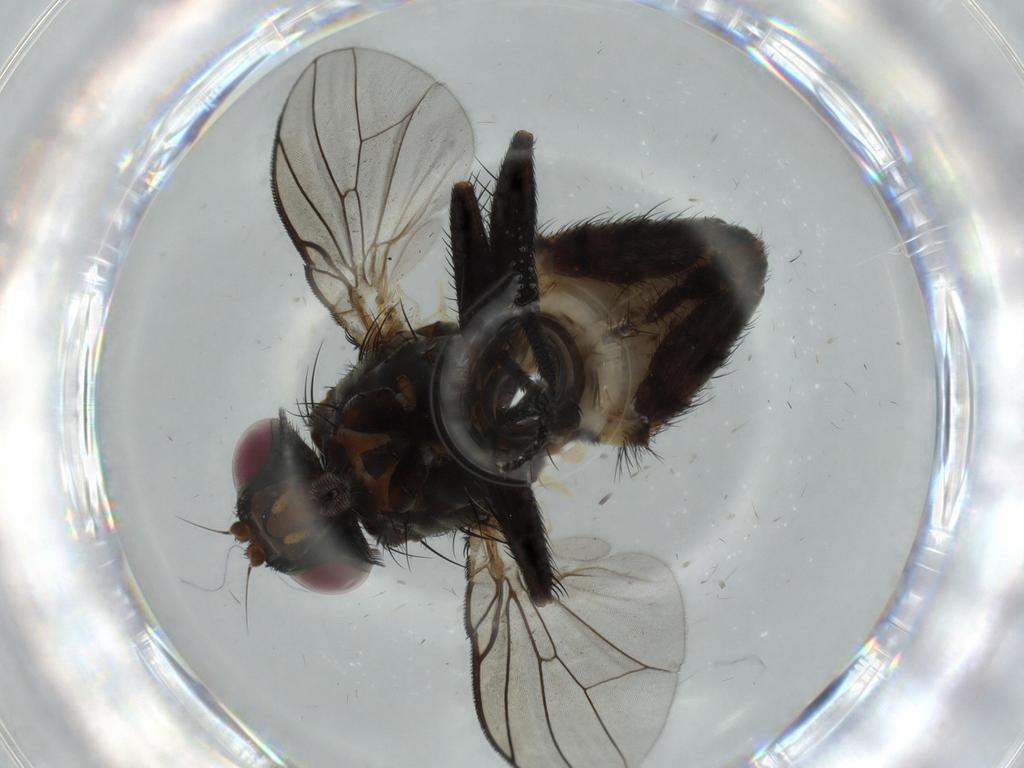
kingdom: Animalia
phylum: Arthropoda
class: Insecta
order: Diptera
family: Ceratopogonidae
